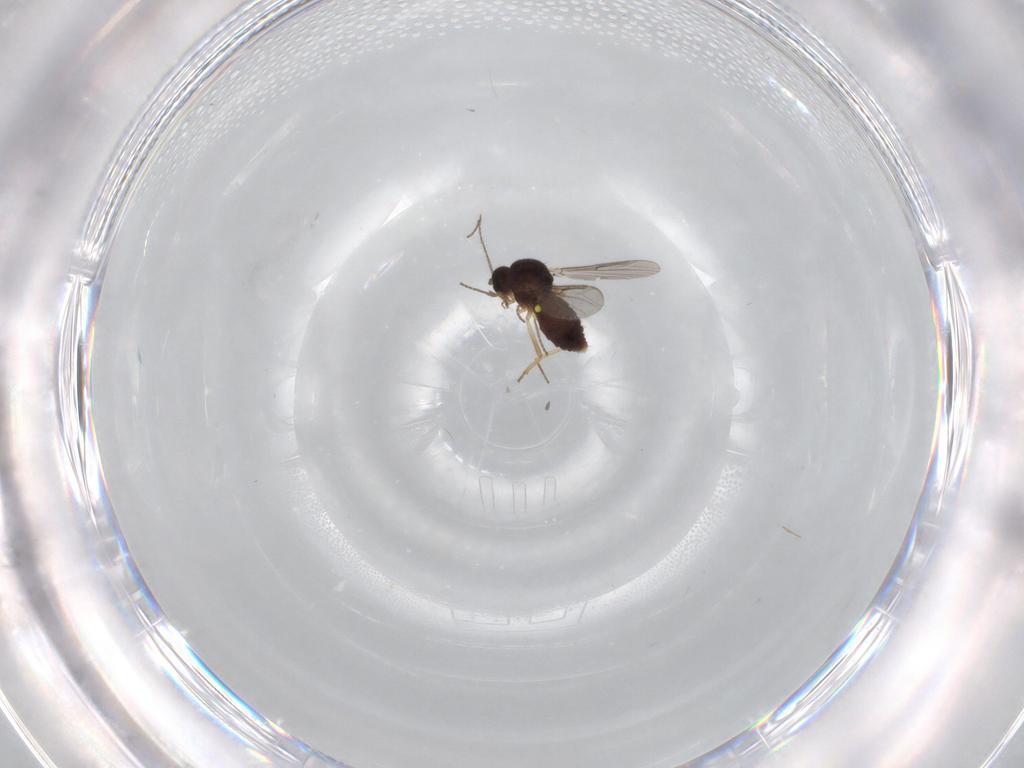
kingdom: Animalia
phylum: Arthropoda
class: Insecta
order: Diptera
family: Ceratopogonidae
